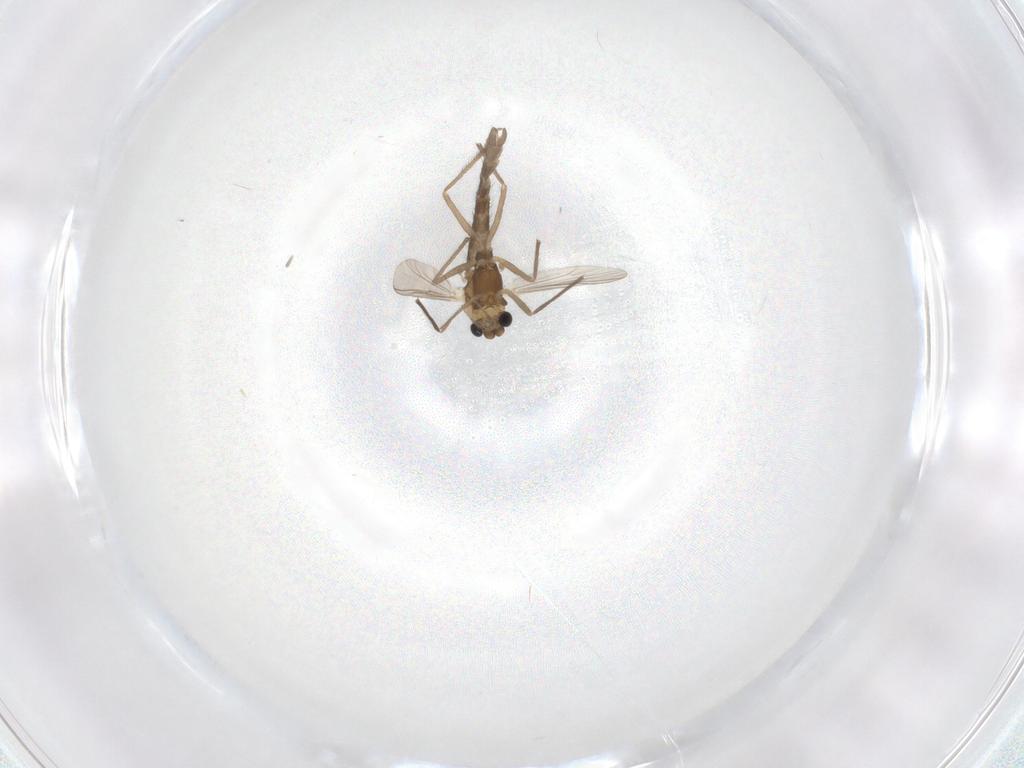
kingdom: Animalia
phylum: Arthropoda
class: Insecta
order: Diptera
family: Chironomidae
